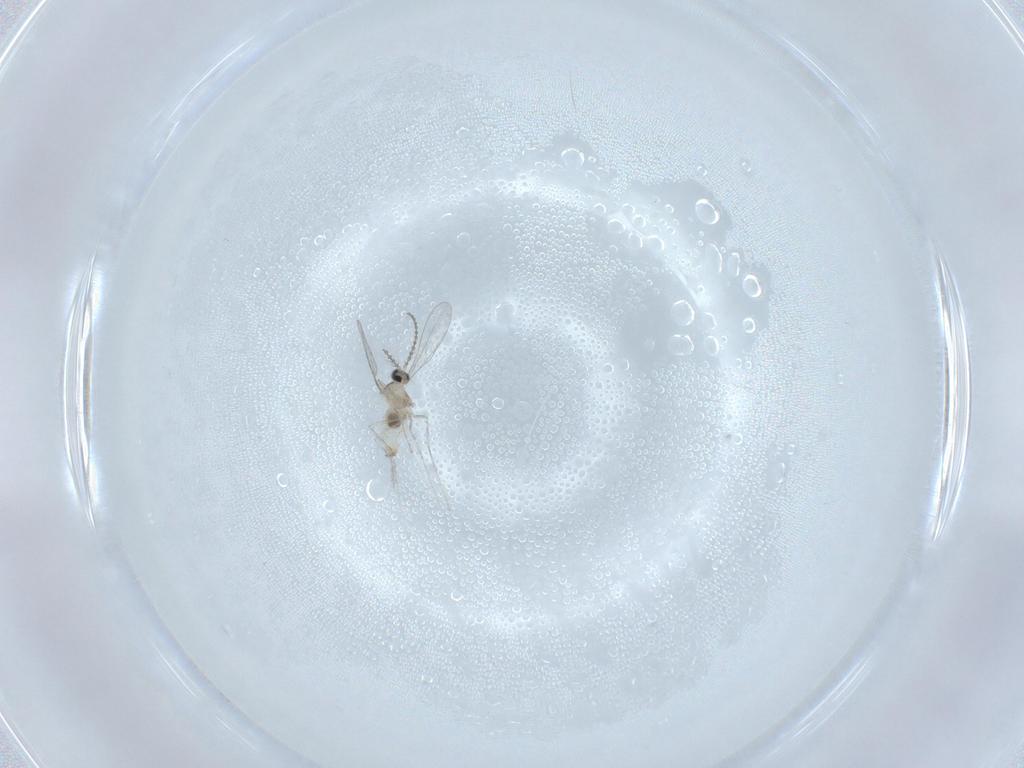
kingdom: Animalia
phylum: Arthropoda
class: Insecta
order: Diptera
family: Cecidomyiidae
